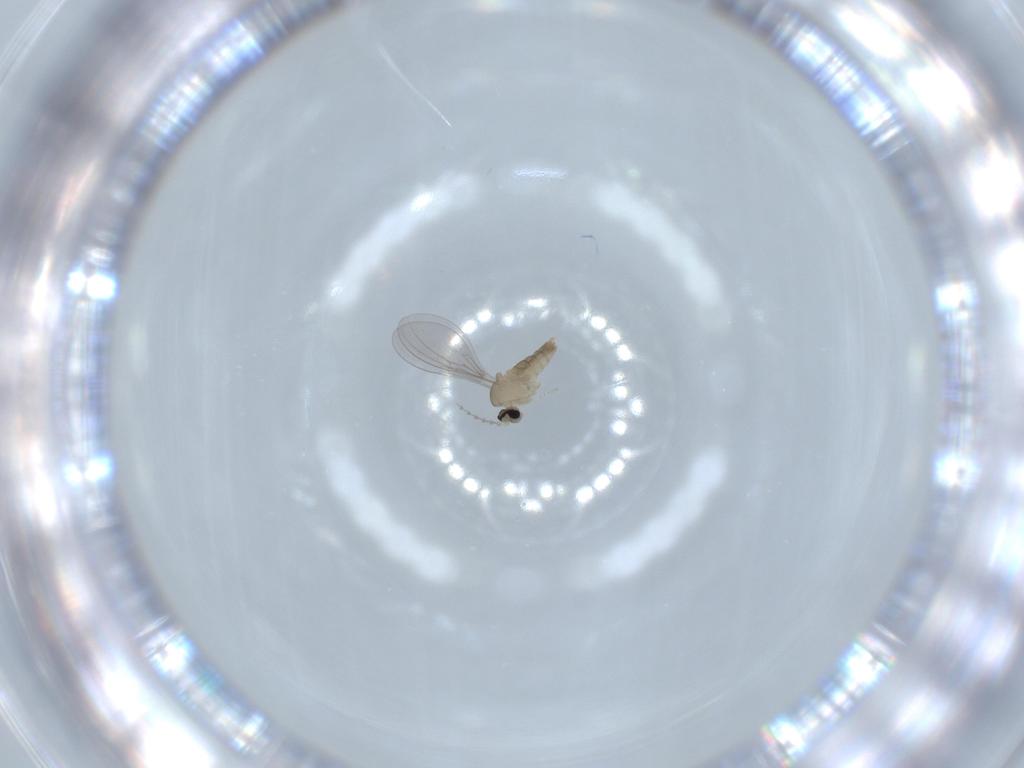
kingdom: Animalia
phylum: Arthropoda
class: Insecta
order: Diptera
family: Cecidomyiidae
